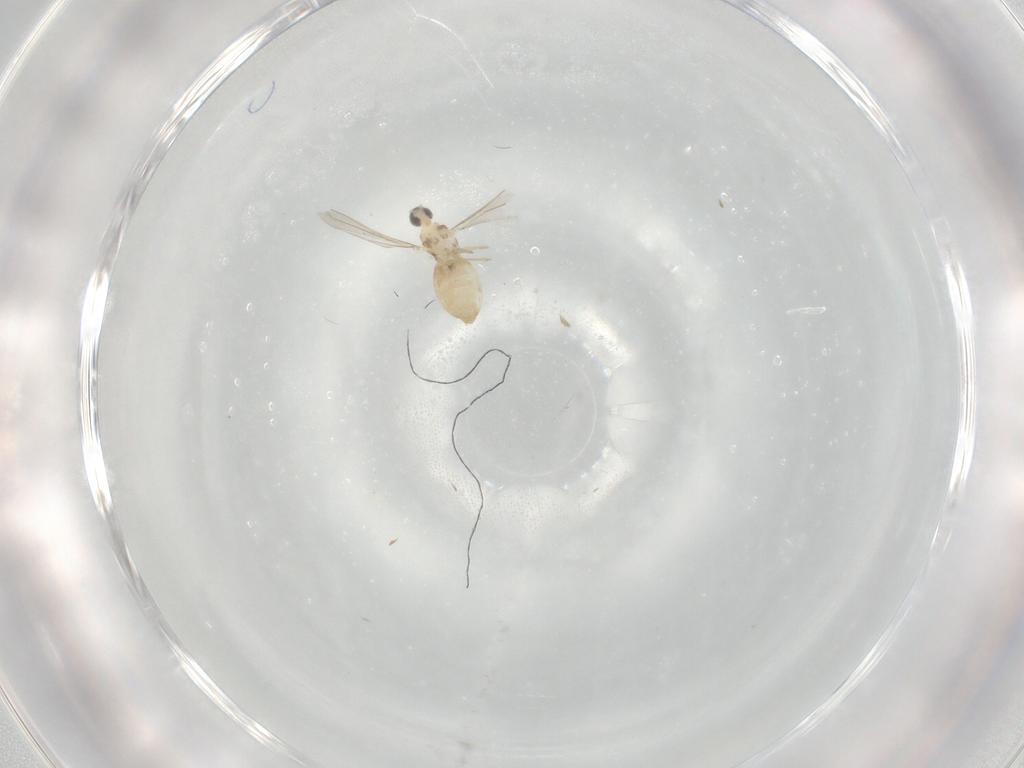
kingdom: Animalia
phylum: Arthropoda
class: Insecta
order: Diptera
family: Cecidomyiidae
